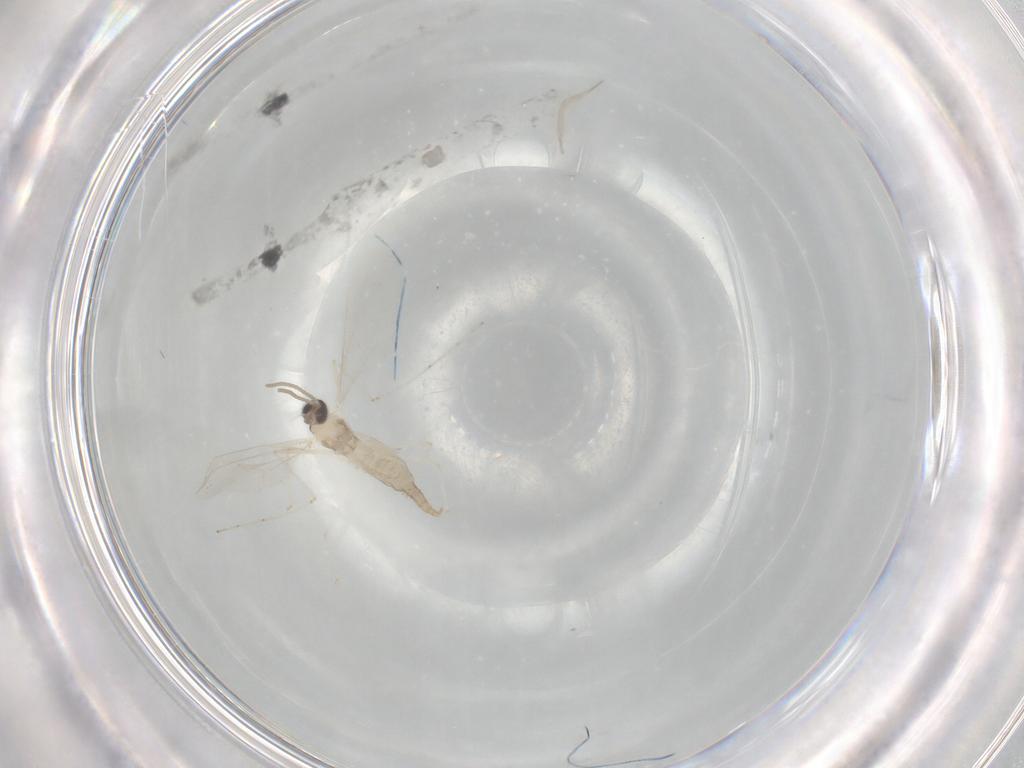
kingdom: Animalia
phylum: Arthropoda
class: Insecta
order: Diptera
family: Cecidomyiidae
